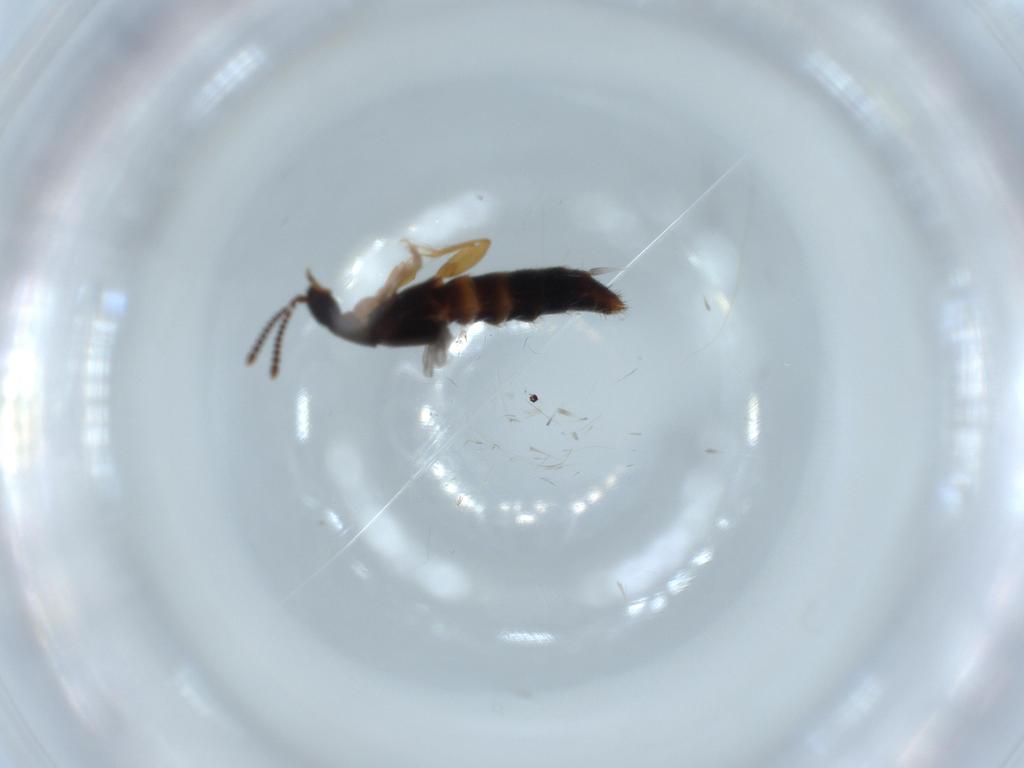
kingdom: Animalia
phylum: Arthropoda
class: Insecta
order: Coleoptera
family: Staphylinidae
